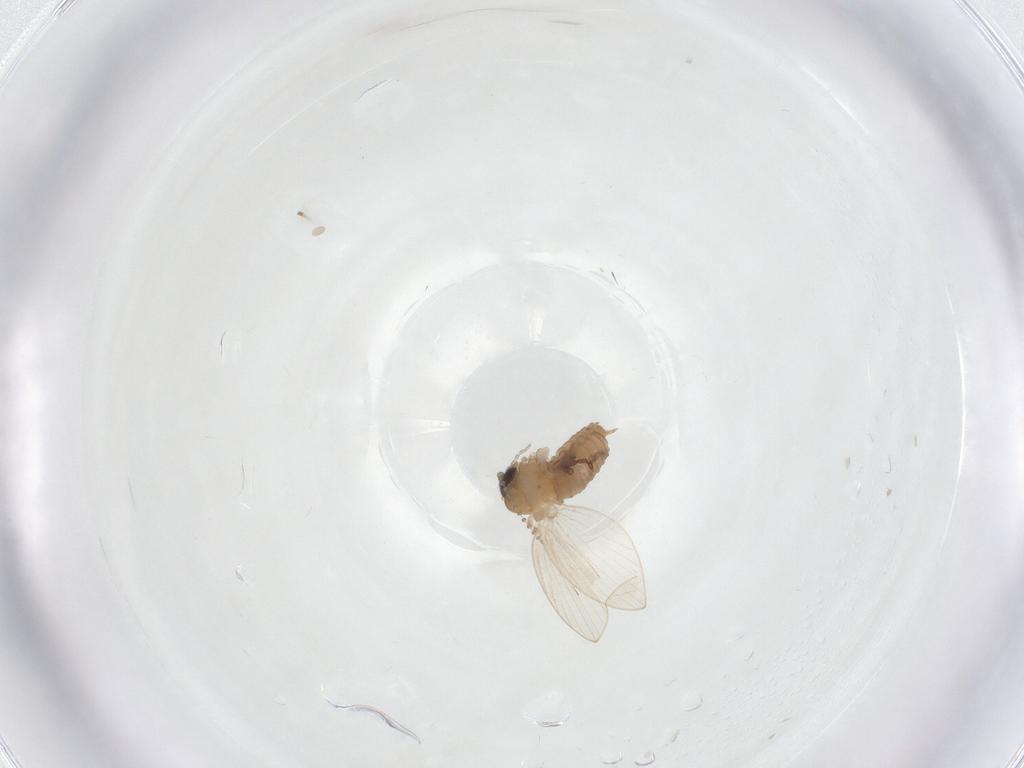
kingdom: Animalia
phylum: Arthropoda
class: Insecta
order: Diptera
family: Psychodidae
